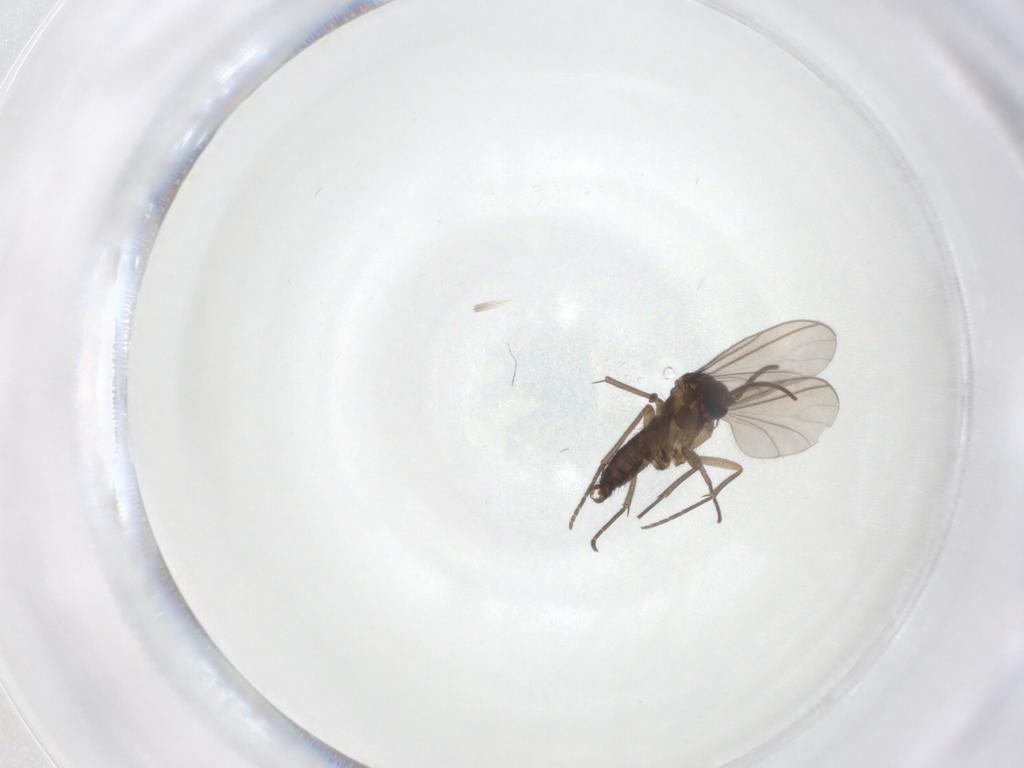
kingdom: Animalia
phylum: Arthropoda
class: Insecta
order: Diptera
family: Sciaridae
